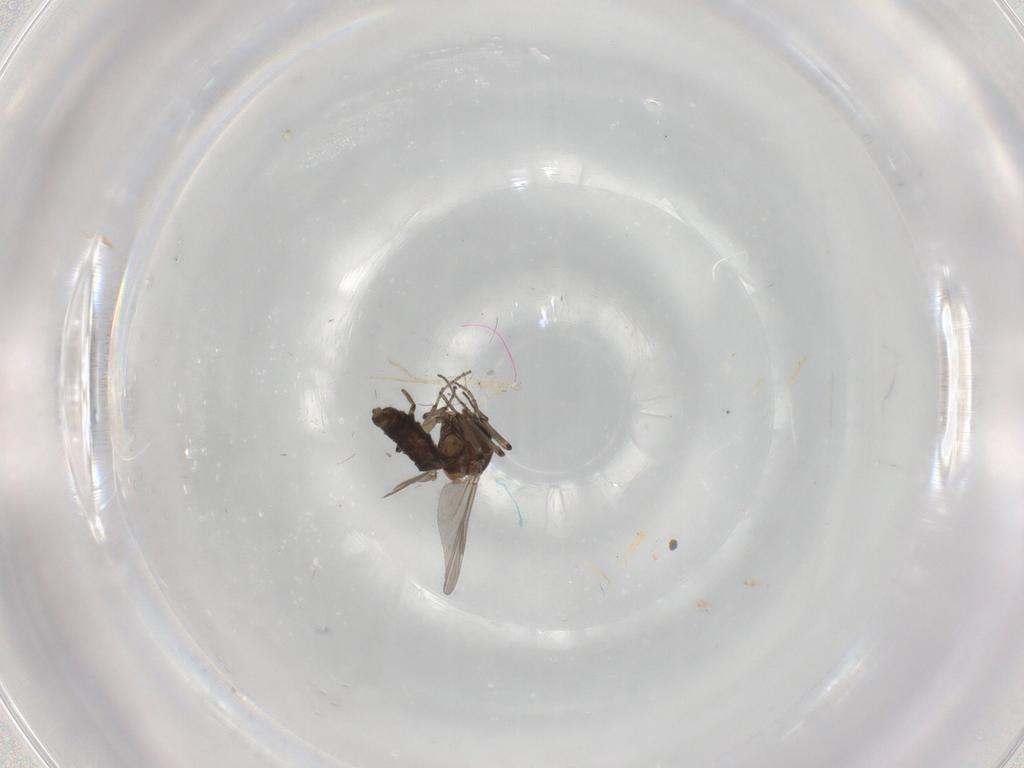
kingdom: Animalia
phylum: Arthropoda
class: Insecta
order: Diptera
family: Ceratopogonidae
